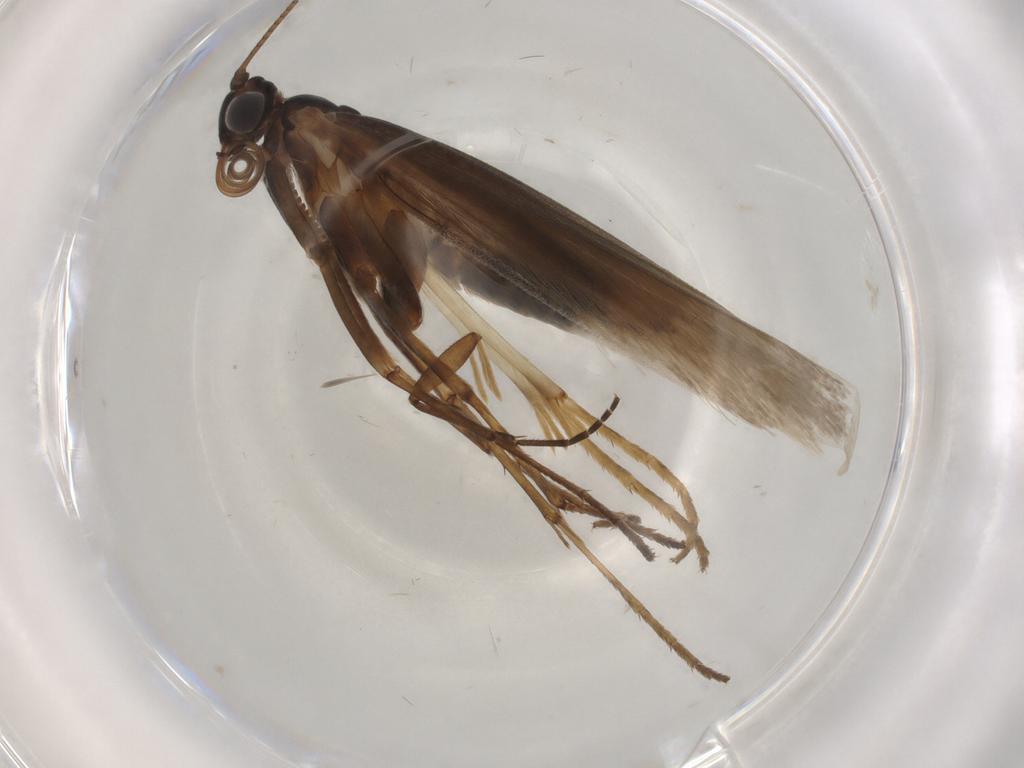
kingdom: Animalia
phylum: Arthropoda
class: Insecta
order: Lepidoptera
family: Adelidae
